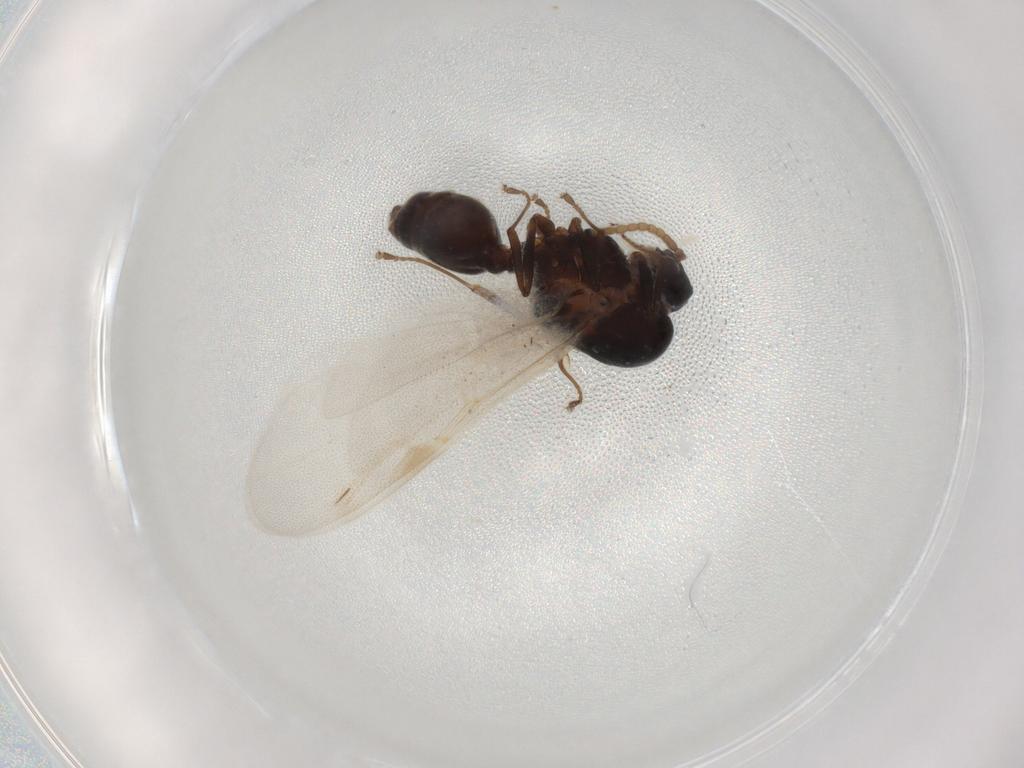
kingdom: Animalia
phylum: Arthropoda
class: Insecta
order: Hymenoptera
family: Formicidae
